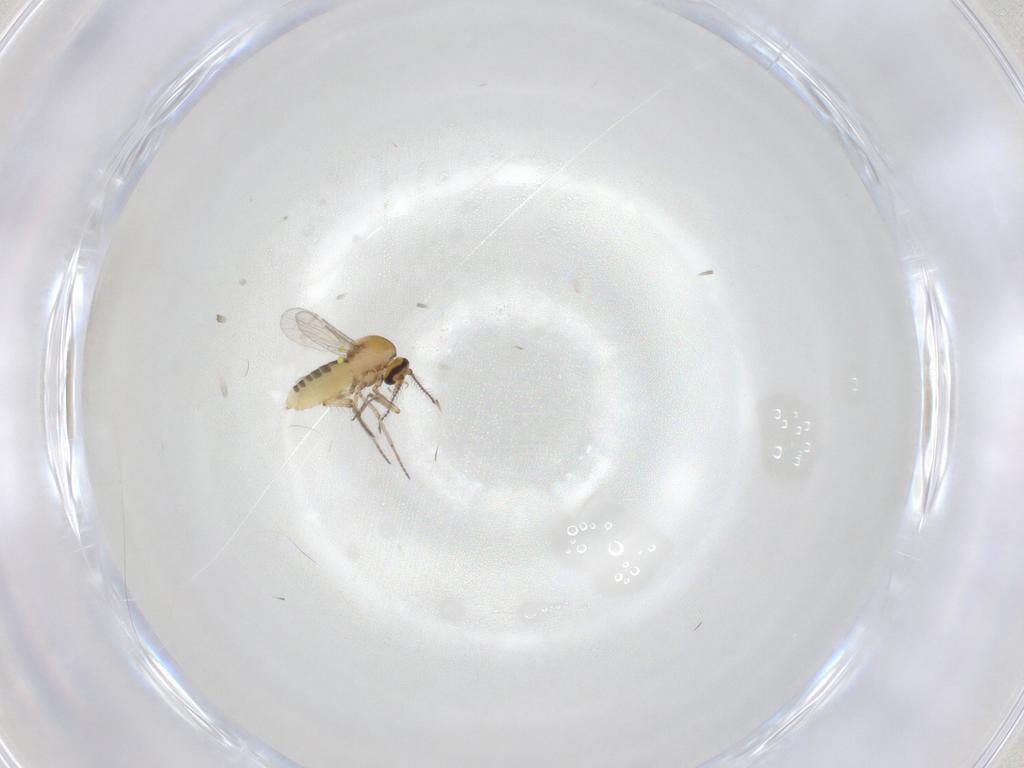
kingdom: Animalia
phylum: Arthropoda
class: Insecta
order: Diptera
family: Ceratopogonidae
